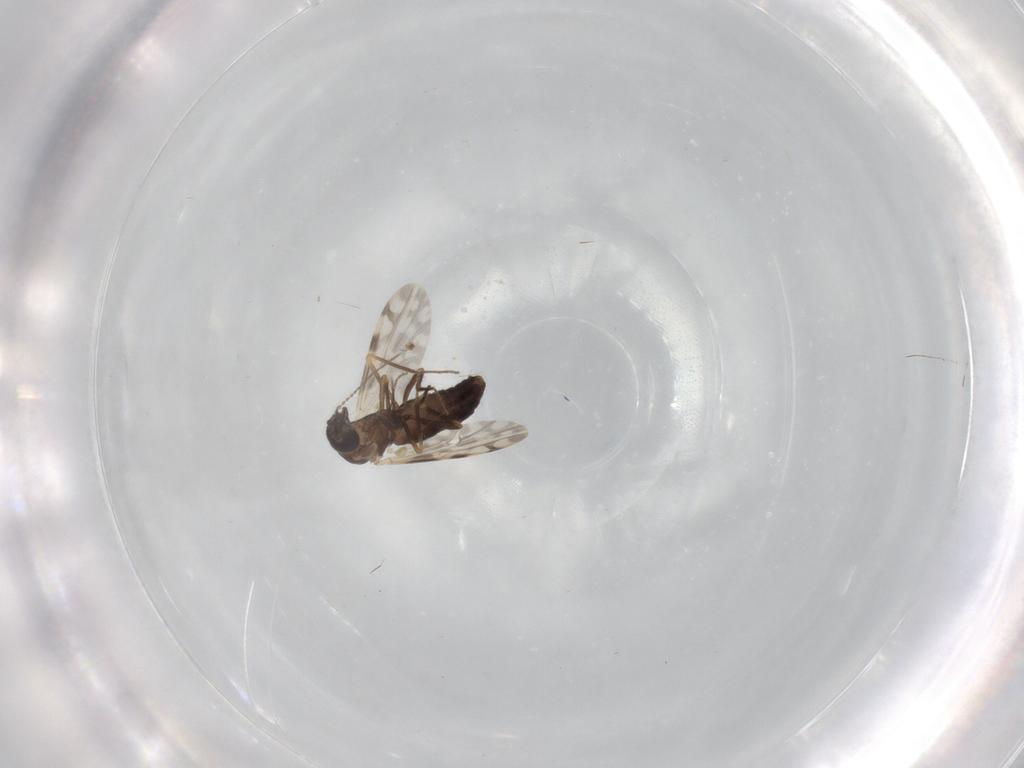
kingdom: Animalia
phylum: Arthropoda
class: Insecta
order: Diptera
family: Ceratopogonidae
